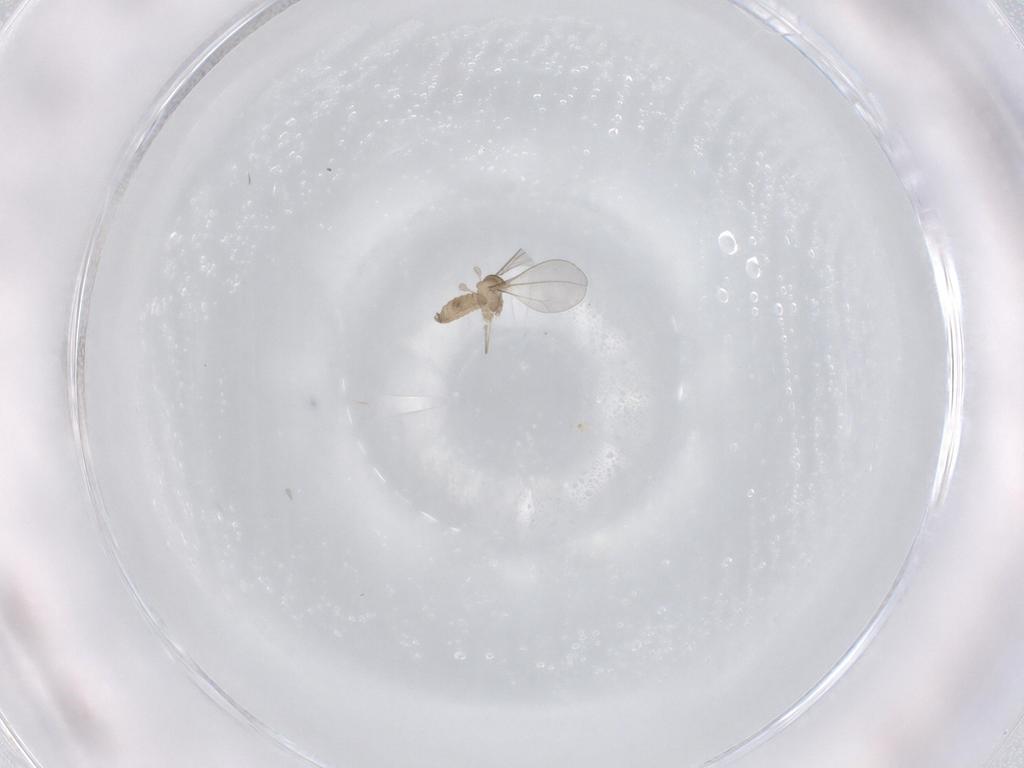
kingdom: Animalia
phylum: Arthropoda
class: Insecta
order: Diptera
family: Cecidomyiidae
